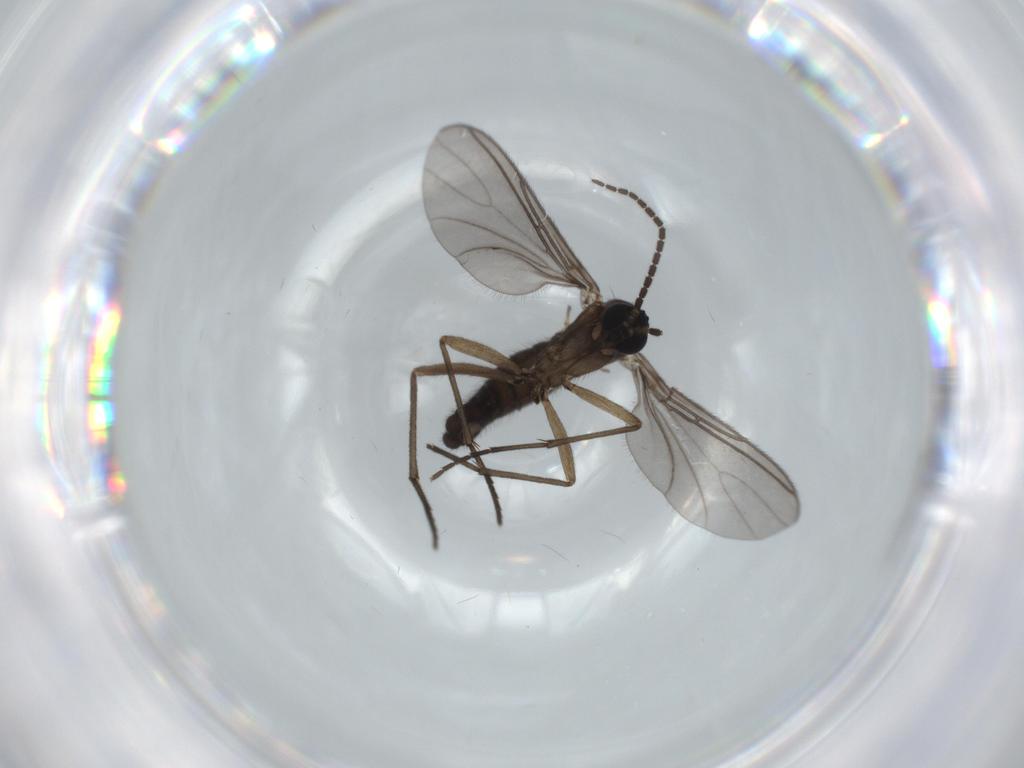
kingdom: Animalia
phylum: Arthropoda
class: Insecta
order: Diptera
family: Sciaridae
